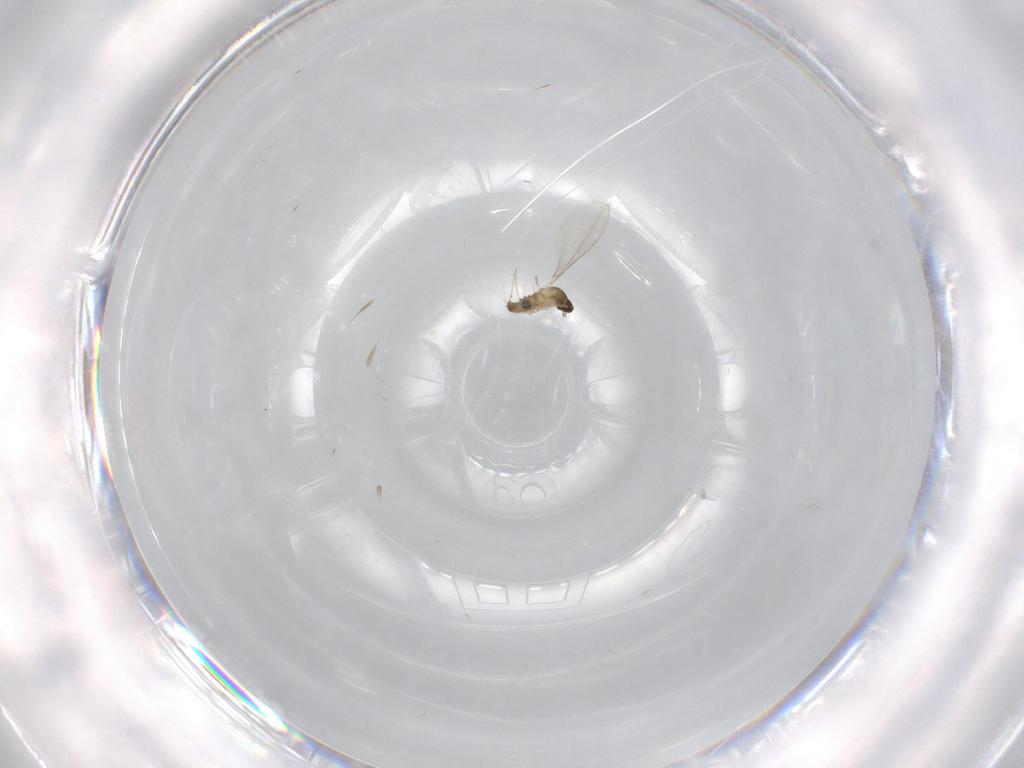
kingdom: Animalia
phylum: Arthropoda
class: Insecta
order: Diptera
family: Cecidomyiidae
